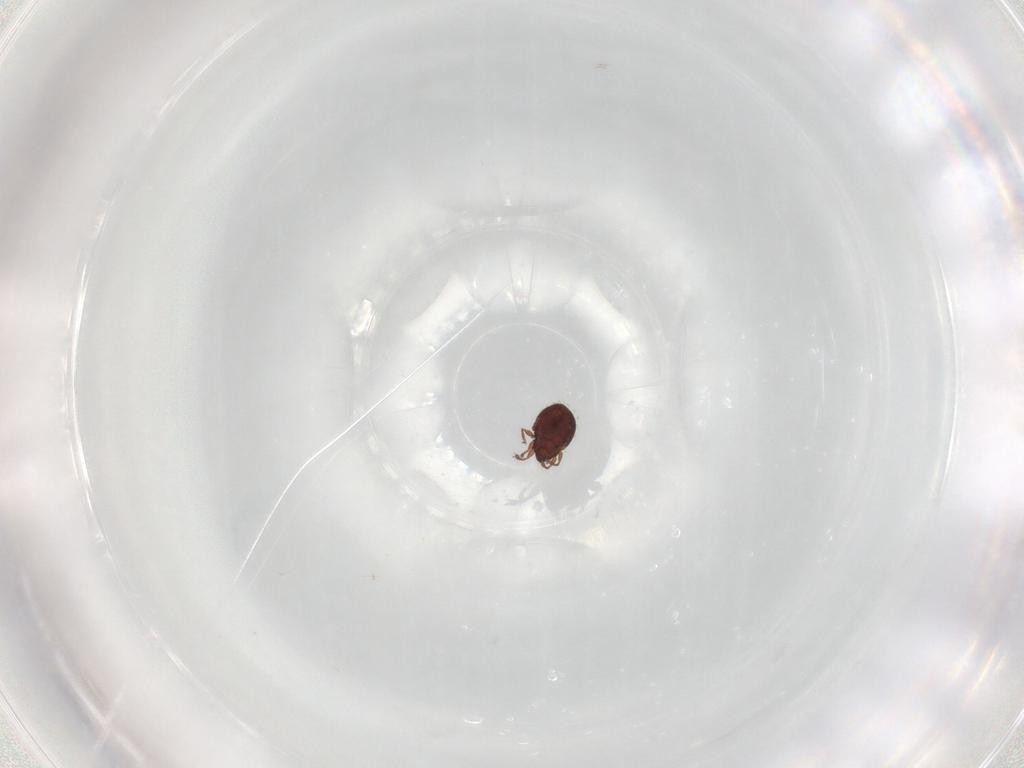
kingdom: Animalia
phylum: Arthropoda
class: Arachnida
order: Sarcoptiformes
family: Scheloribatidae
